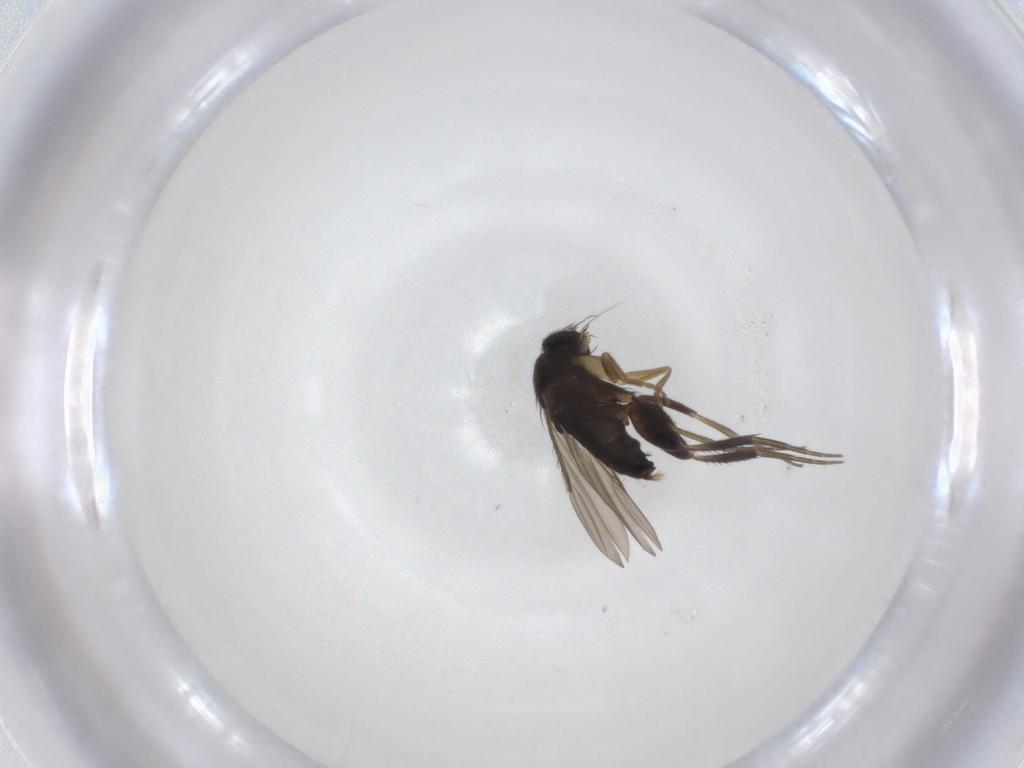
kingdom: Animalia
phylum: Arthropoda
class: Insecta
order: Diptera
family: Phoridae
